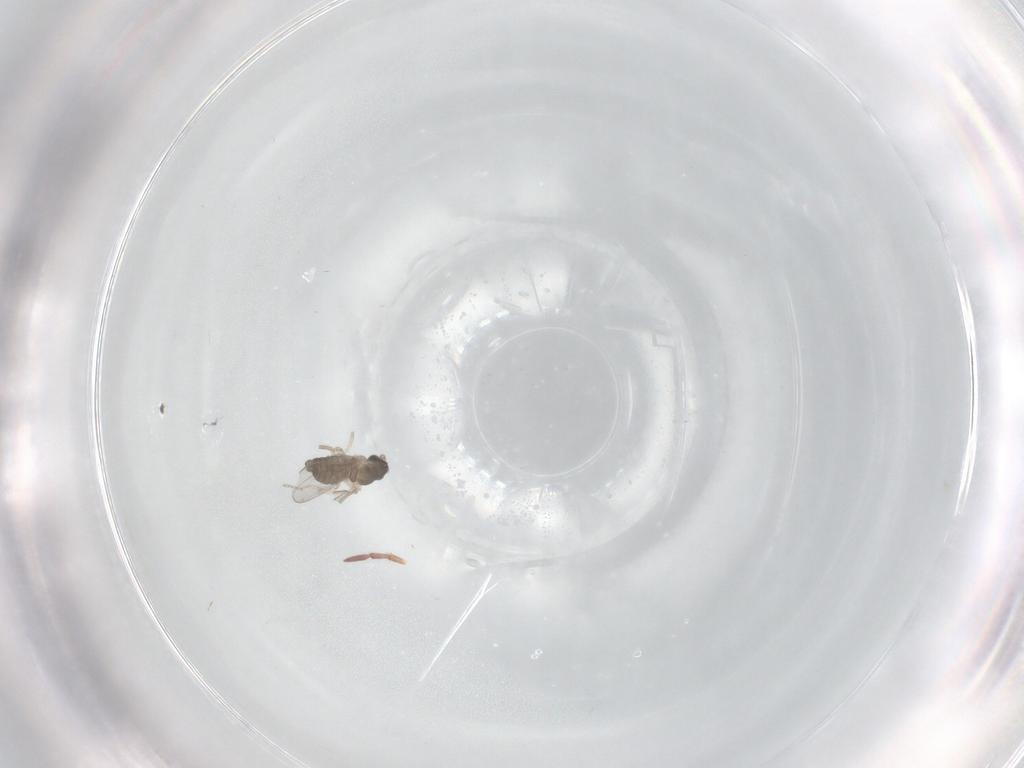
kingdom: Animalia
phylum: Arthropoda
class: Insecta
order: Diptera
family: Cecidomyiidae
